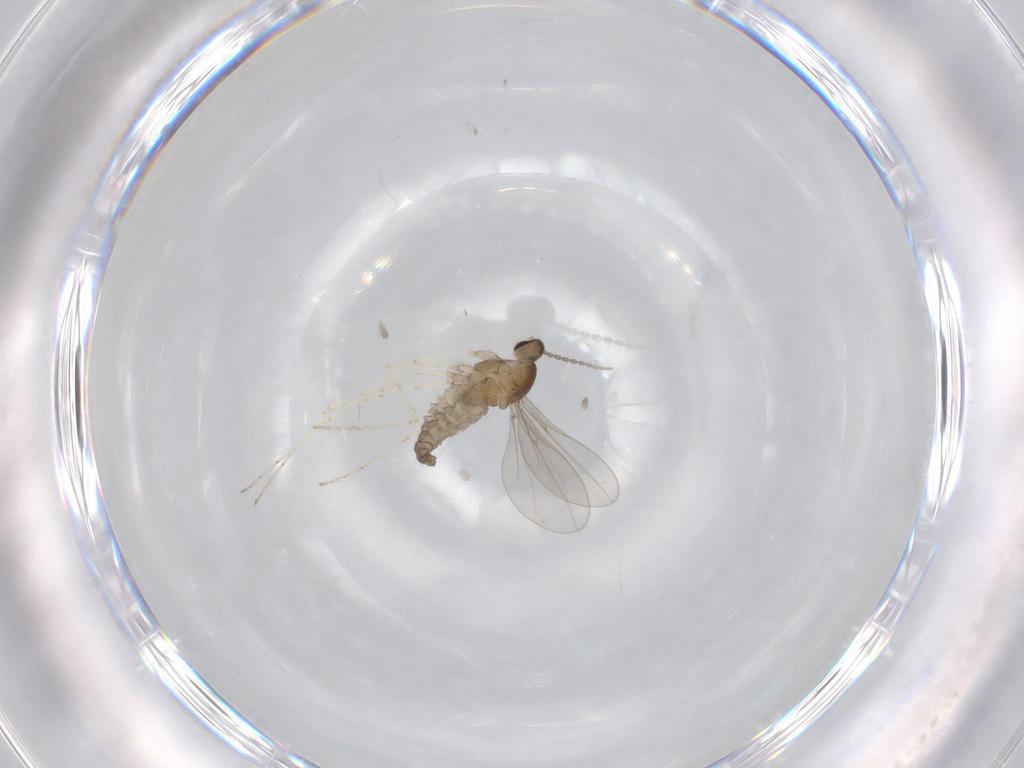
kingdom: Animalia
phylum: Arthropoda
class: Insecta
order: Diptera
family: Cecidomyiidae
